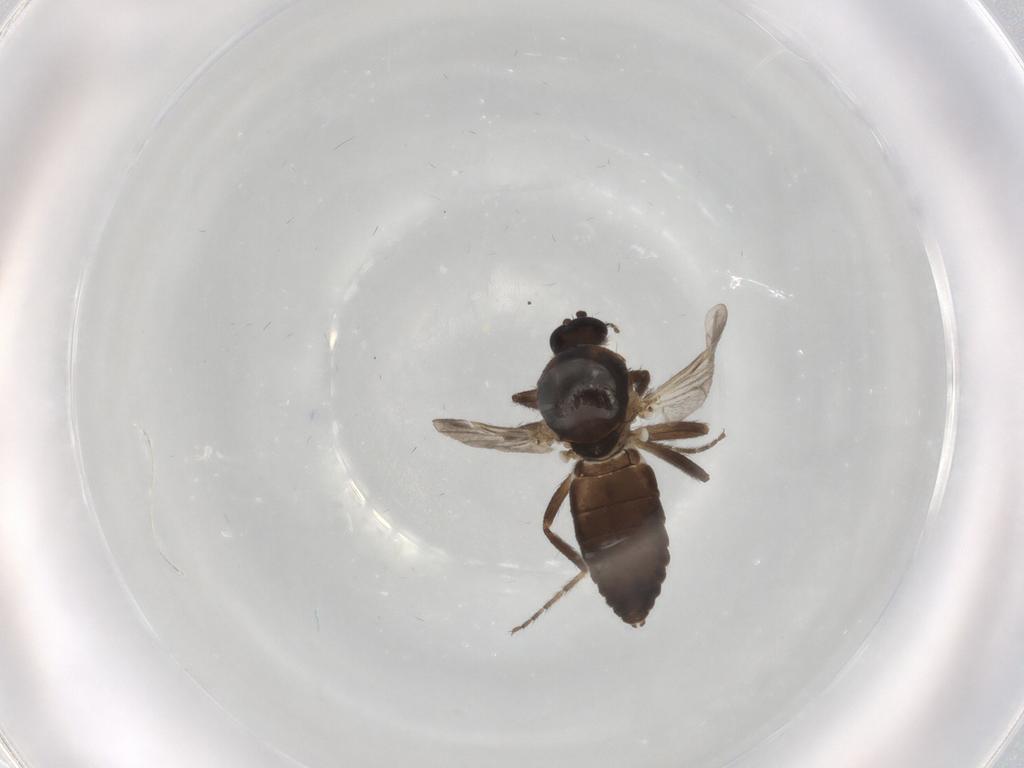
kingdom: Animalia
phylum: Arthropoda
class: Insecta
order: Diptera
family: Ceratopogonidae
